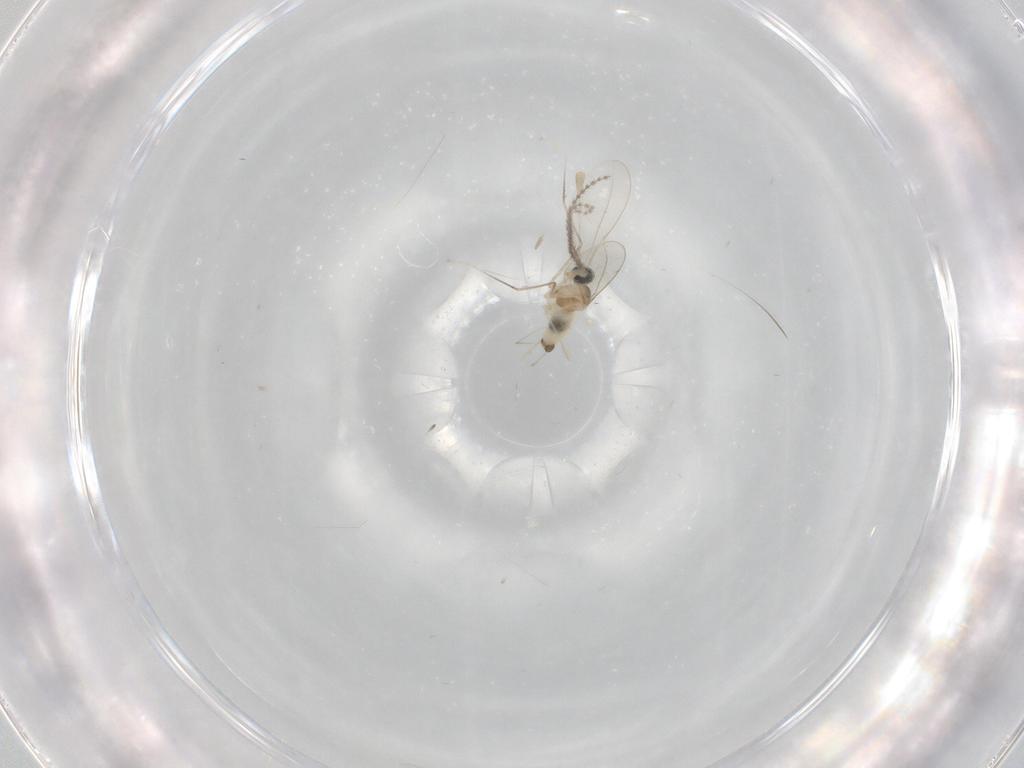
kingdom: Animalia
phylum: Arthropoda
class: Insecta
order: Diptera
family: Cecidomyiidae
